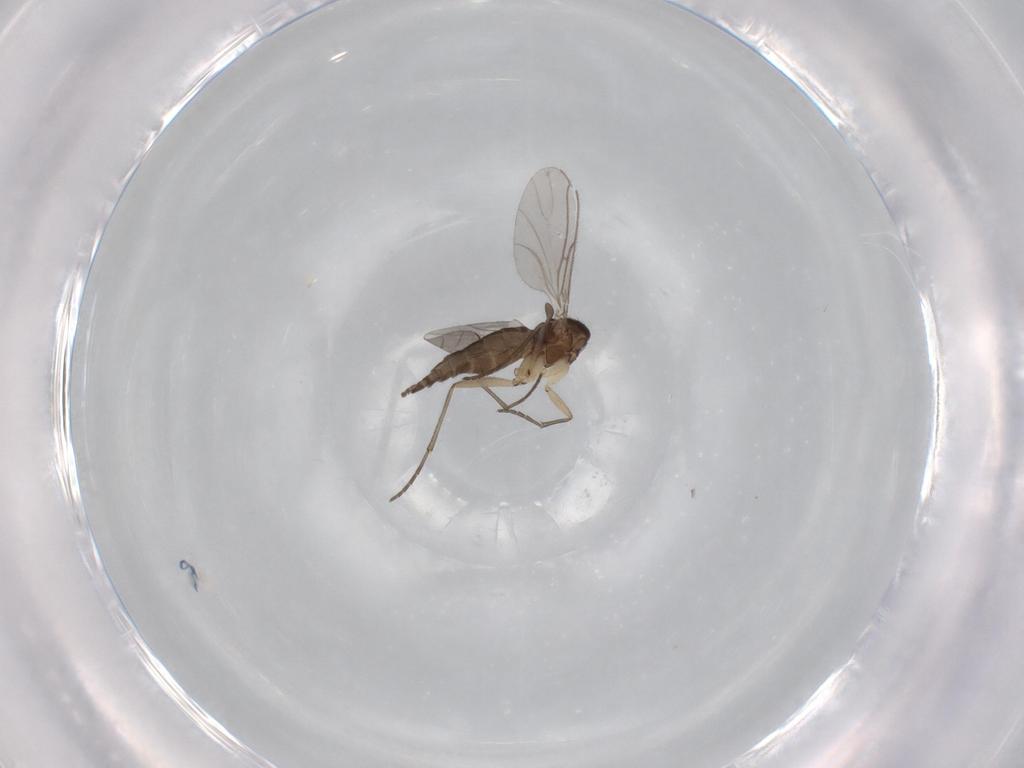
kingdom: Animalia
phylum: Arthropoda
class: Insecta
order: Diptera
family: Sciaridae
